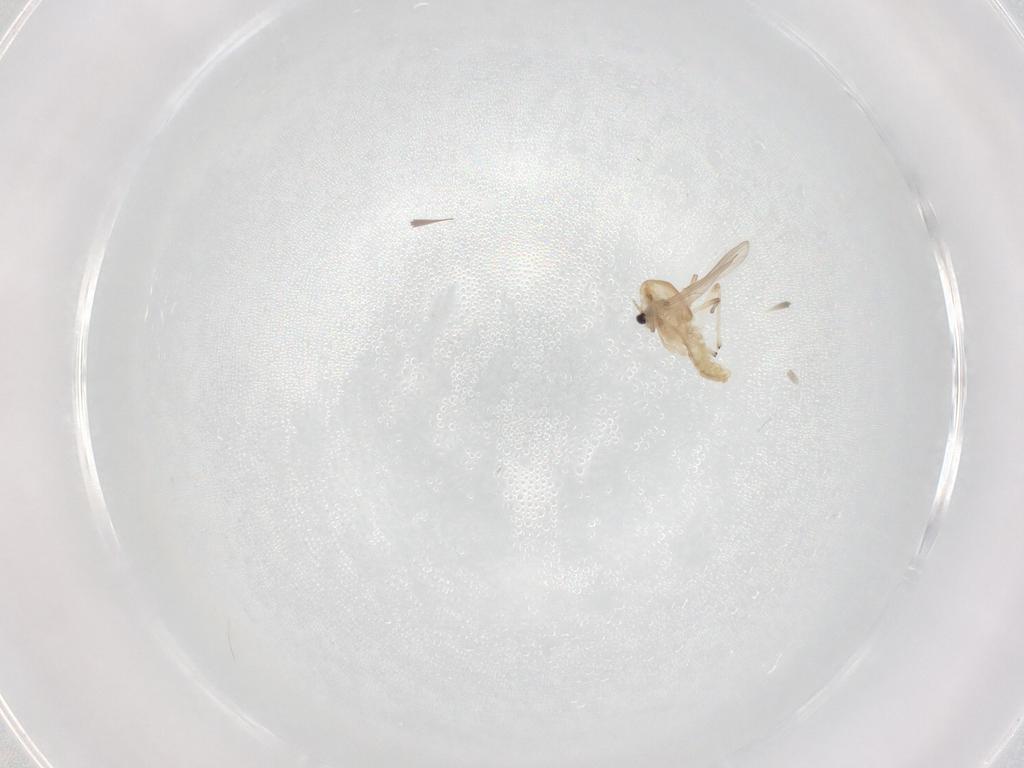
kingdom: Animalia
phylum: Arthropoda
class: Insecta
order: Diptera
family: Chironomidae
